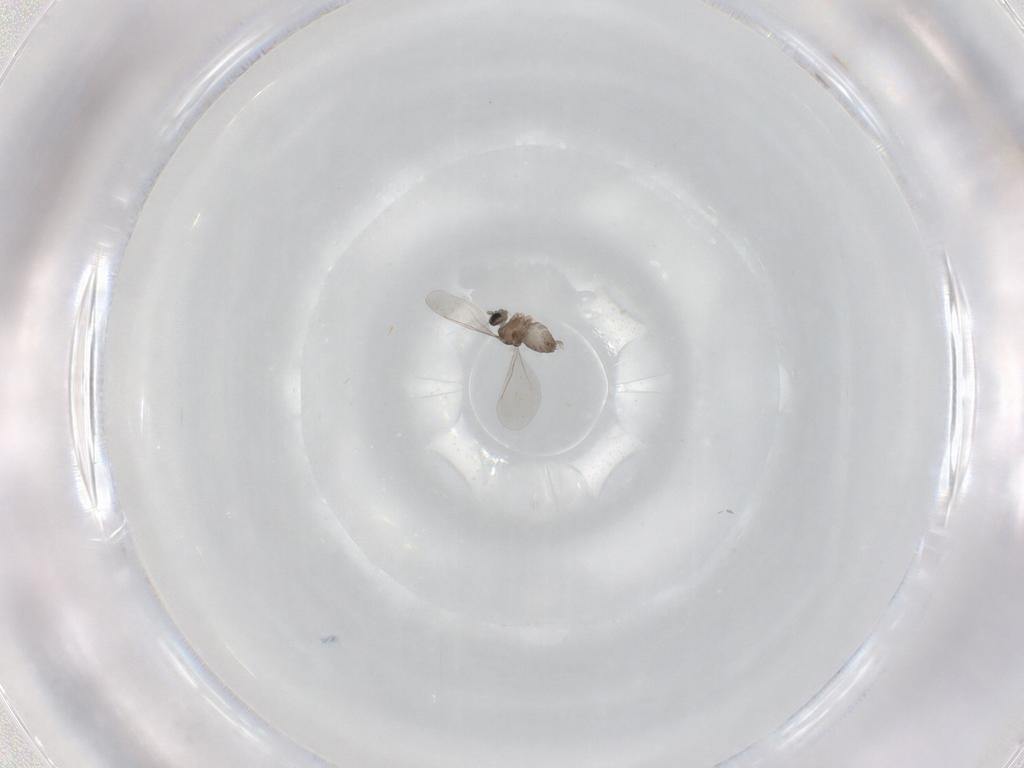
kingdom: Animalia
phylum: Arthropoda
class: Insecta
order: Diptera
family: Cecidomyiidae
